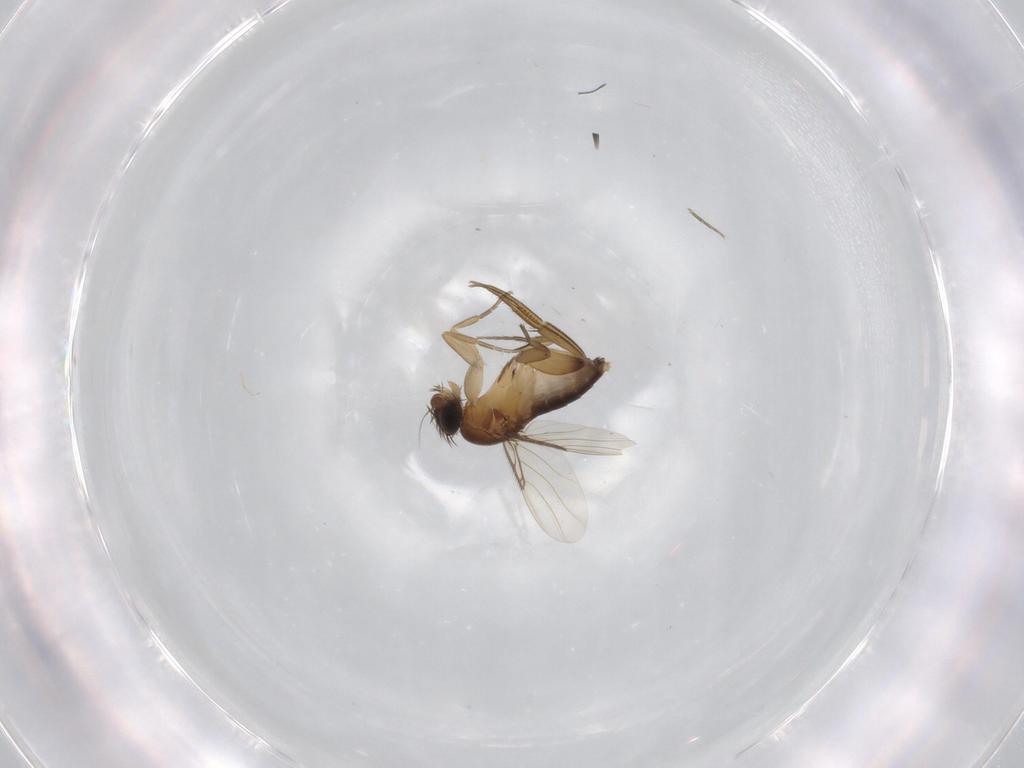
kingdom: Animalia
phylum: Arthropoda
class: Insecta
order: Diptera
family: Phoridae
